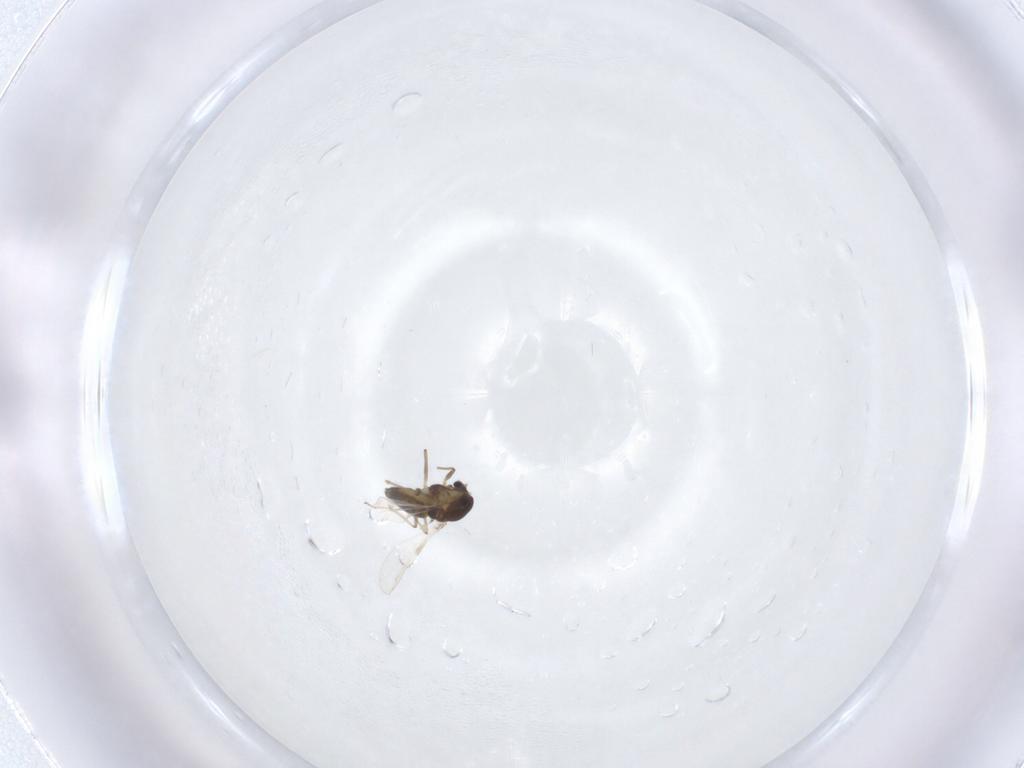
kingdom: Animalia
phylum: Arthropoda
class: Insecta
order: Diptera
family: Chironomidae
